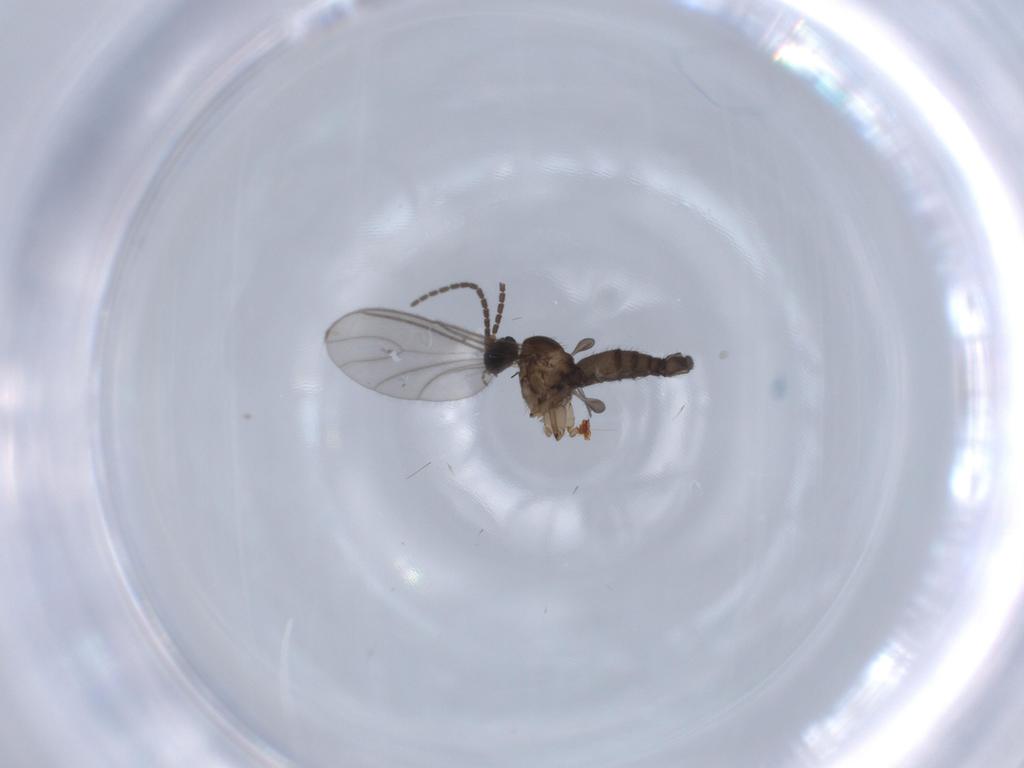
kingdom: Animalia
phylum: Arthropoda
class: Insecta
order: Diptera
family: Sciaridae
